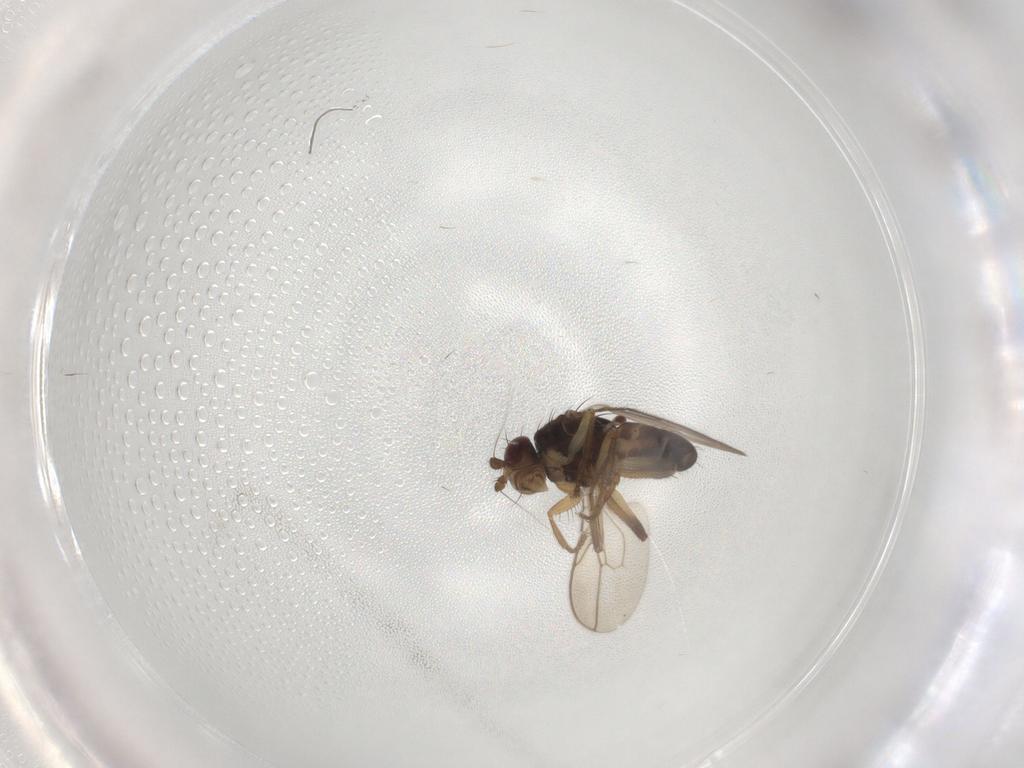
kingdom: Animalia
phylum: Arthropoda
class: Insecta
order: Diptera
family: Sphaeroceridae
